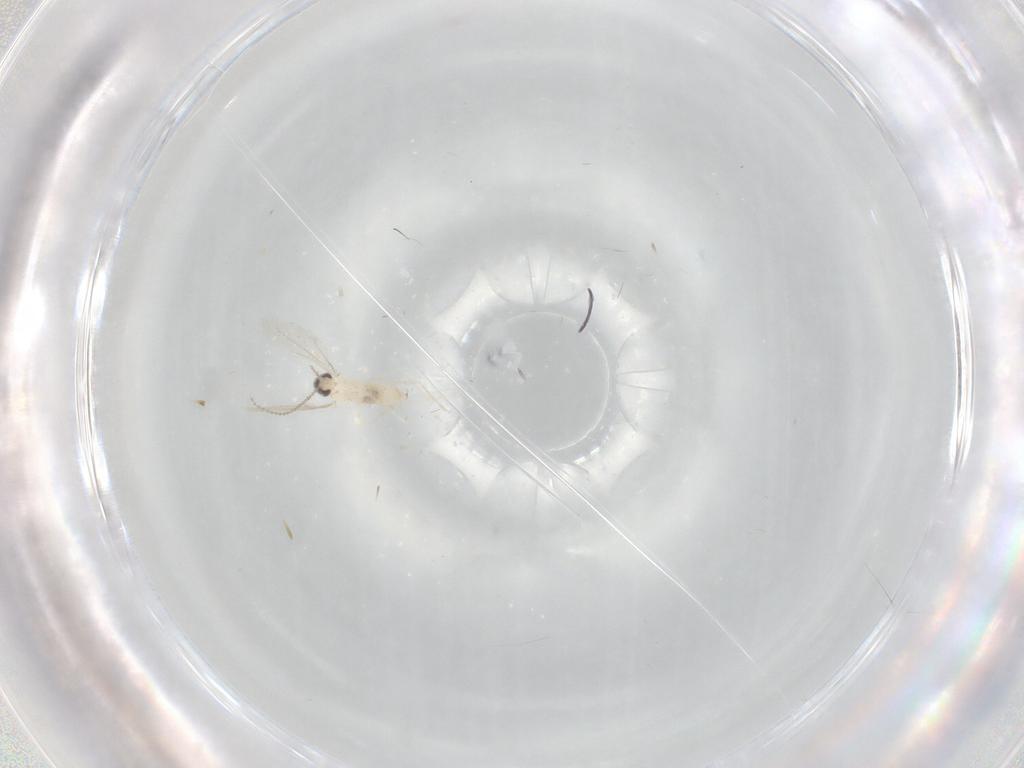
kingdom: Animalia
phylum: Arthropoda
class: Insecta
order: Diptera
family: Cecidomyiidae
